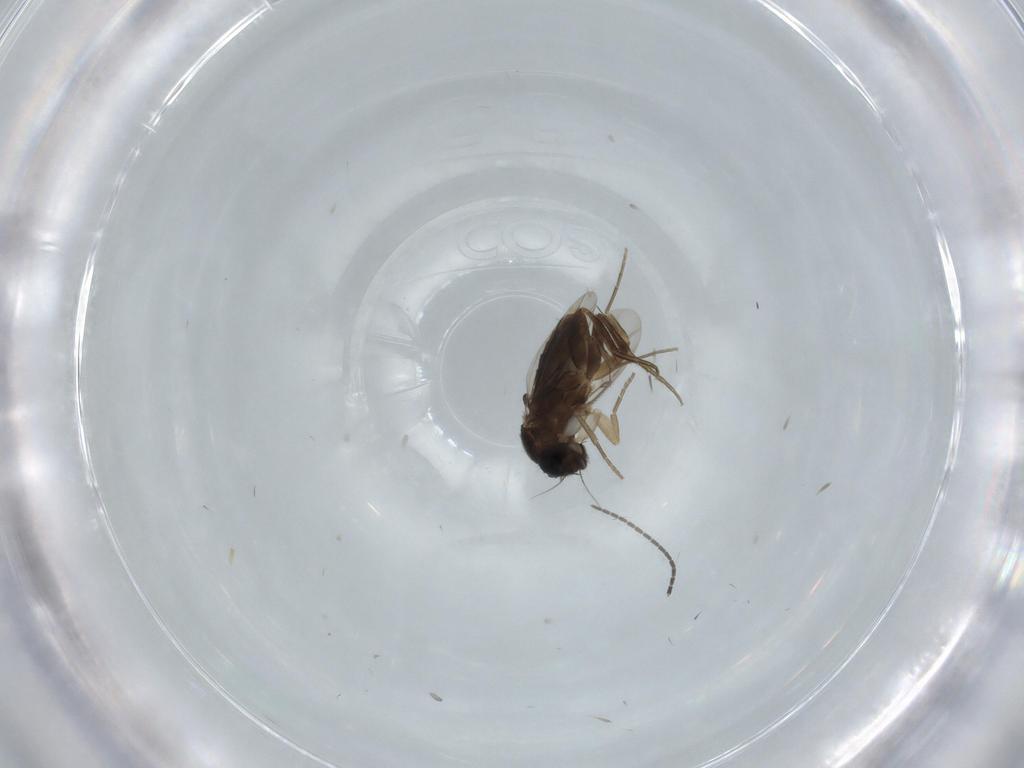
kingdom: Animalia
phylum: Arthropoda
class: Insecta
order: Diptera
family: Phoridae
